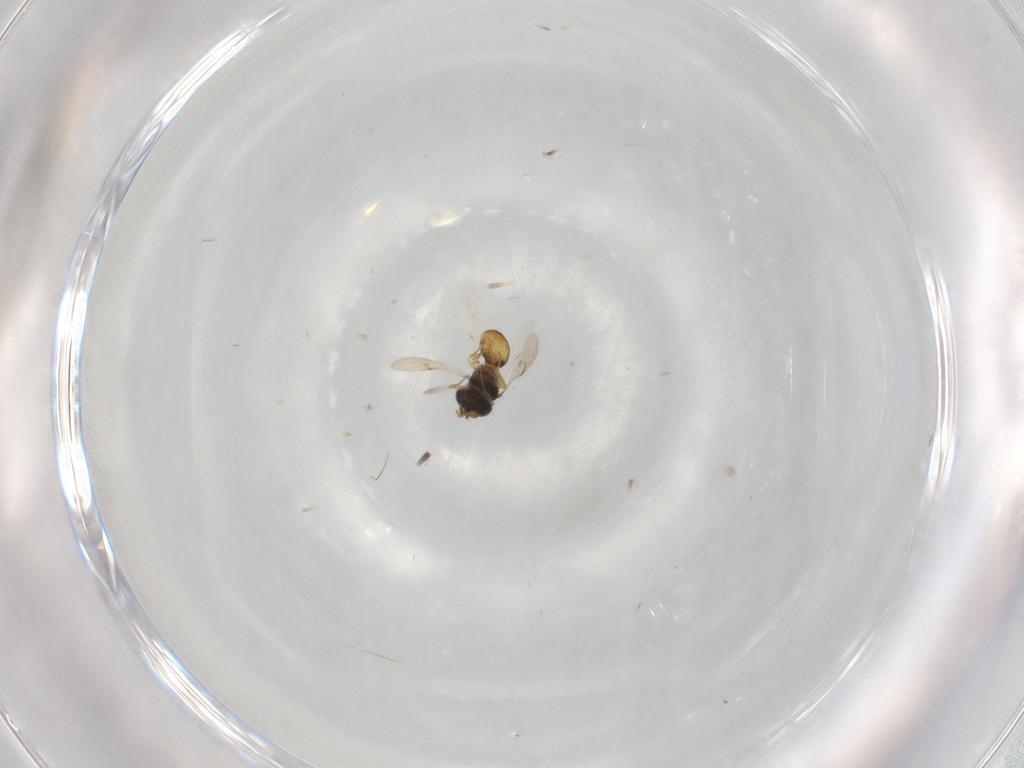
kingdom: Animalia
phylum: Arthropoda
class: Insecta
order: Hymenoptera
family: Scelionidae
